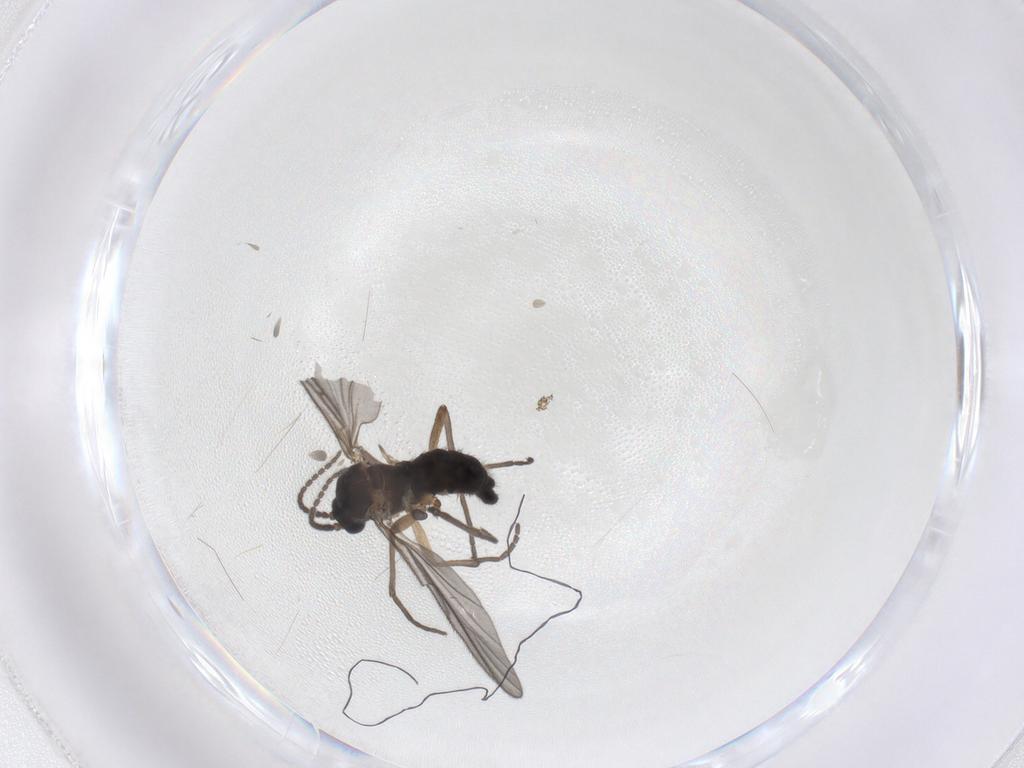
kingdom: Animalia
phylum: Arthropoda
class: Insecta
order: Diptera
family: Sciaridae
